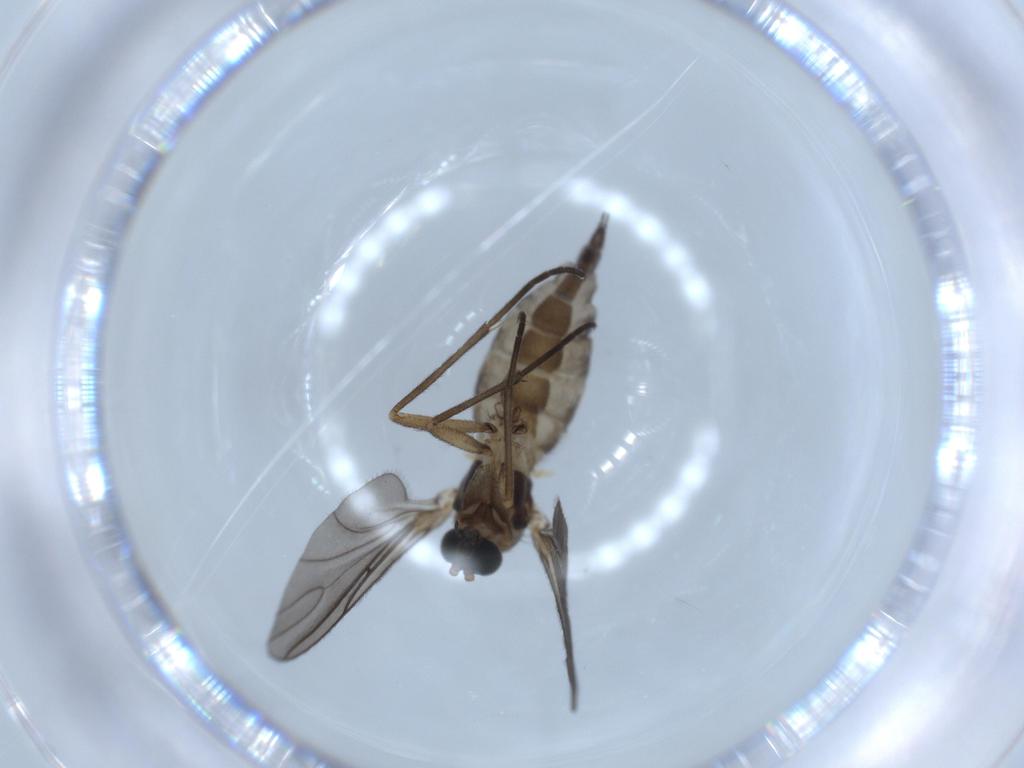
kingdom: Animalia
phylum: Arthropoda
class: Insecta
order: Diptera
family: Sciaridae
